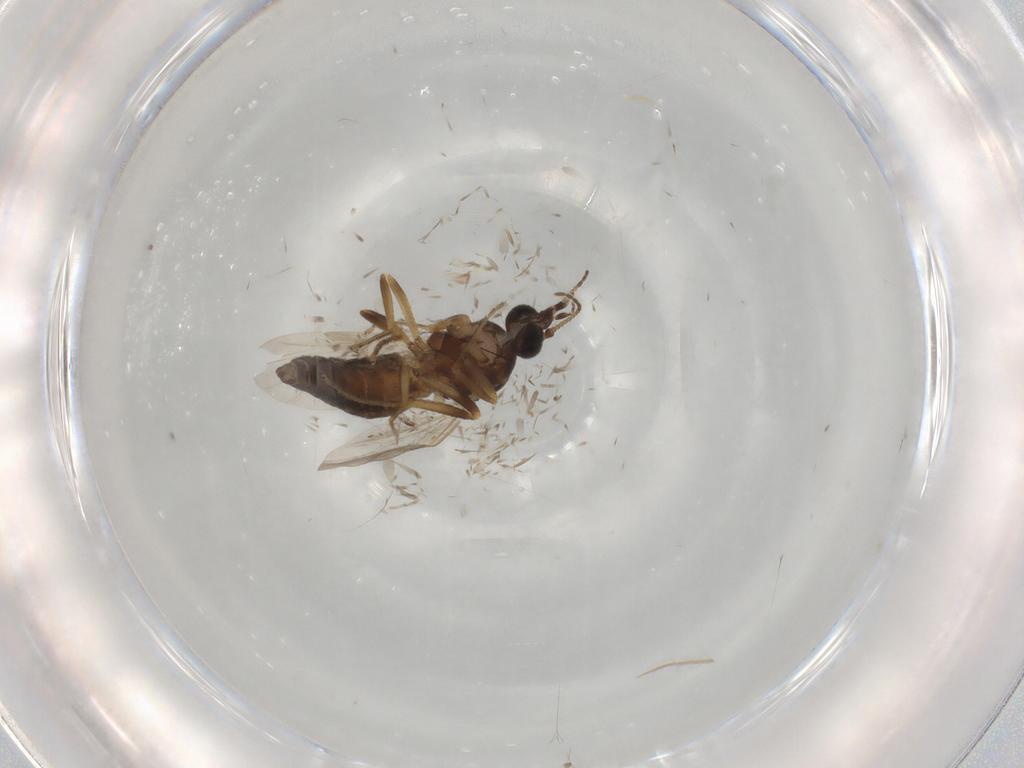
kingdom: Animalia
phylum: Arthropoda
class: Insecta
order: Diptera
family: Ceratopogonidae
